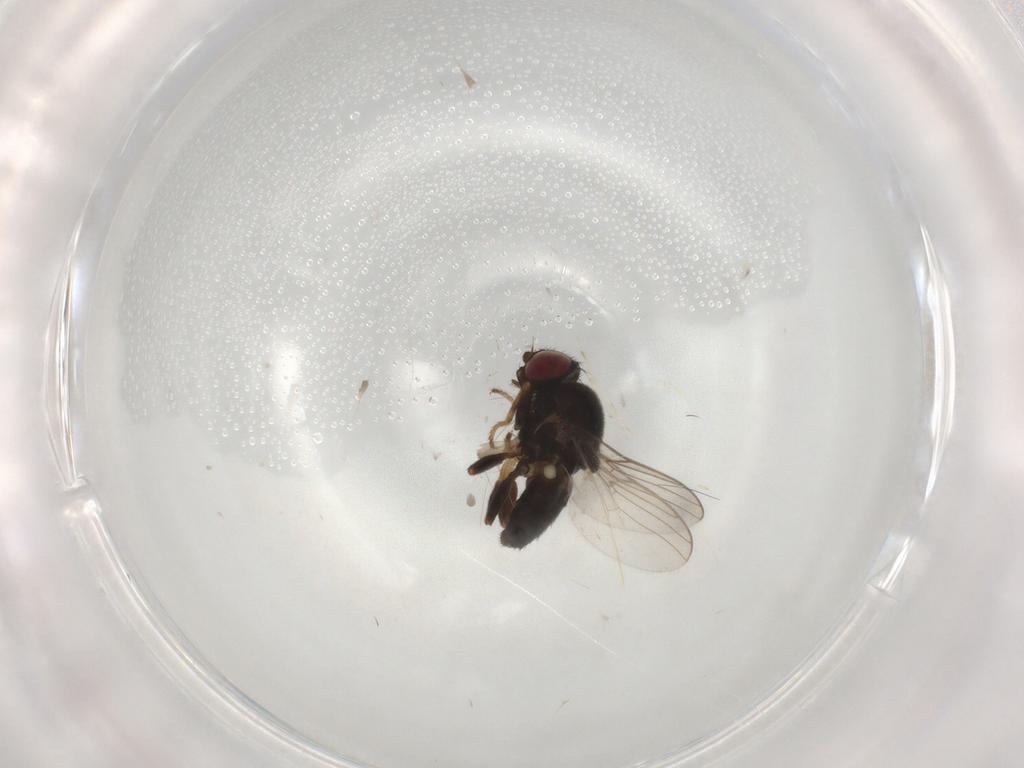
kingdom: Animalia
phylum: Arthropoda
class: Insecta
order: Diptera
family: Chloropidae
